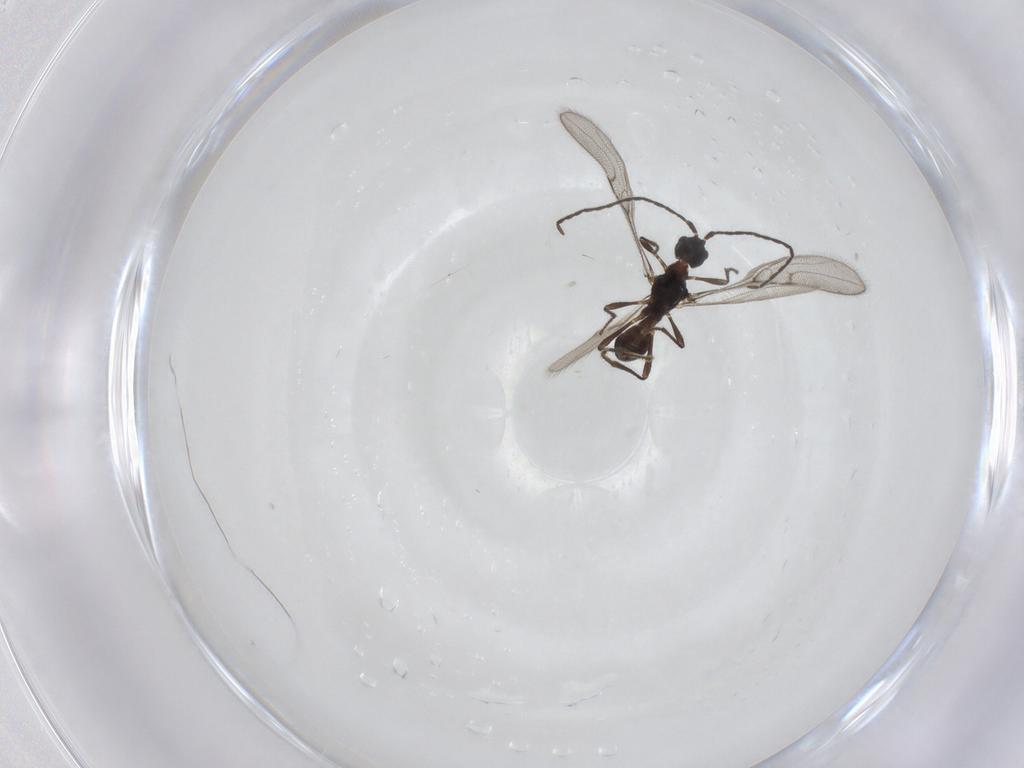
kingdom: Animalia
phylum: Arthropoda
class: Insecta
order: Hymenoptera
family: Braconidae
